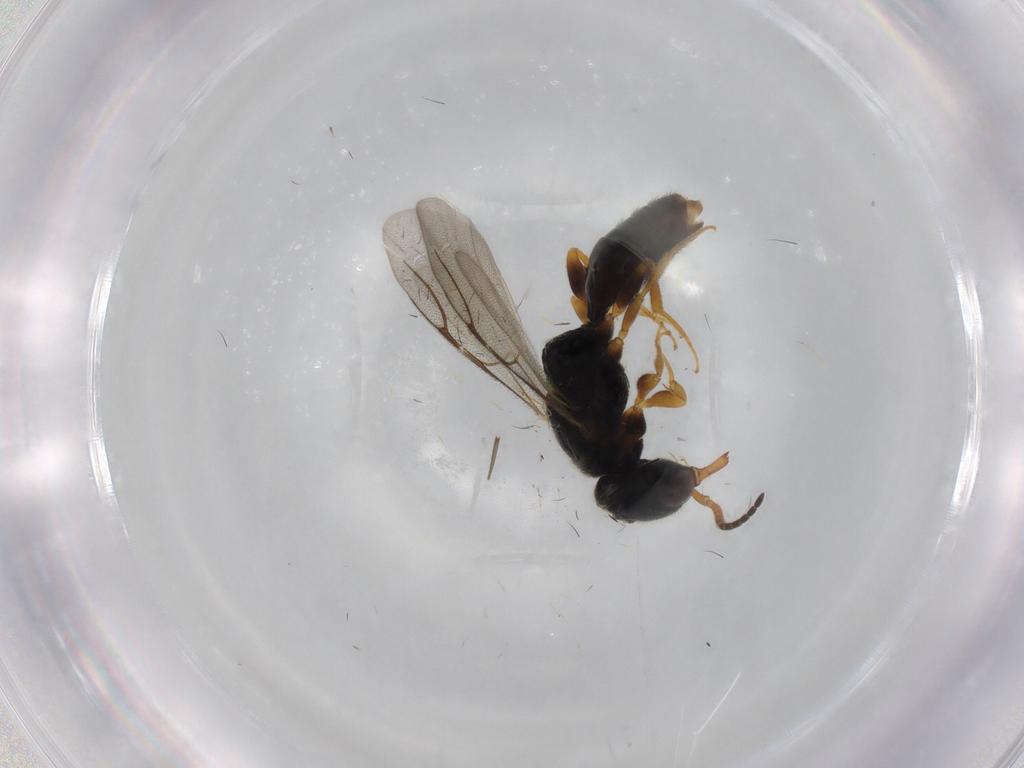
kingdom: Animalia
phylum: Arthropoda
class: Insecta
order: Hymenoptera
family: Bethylidae
